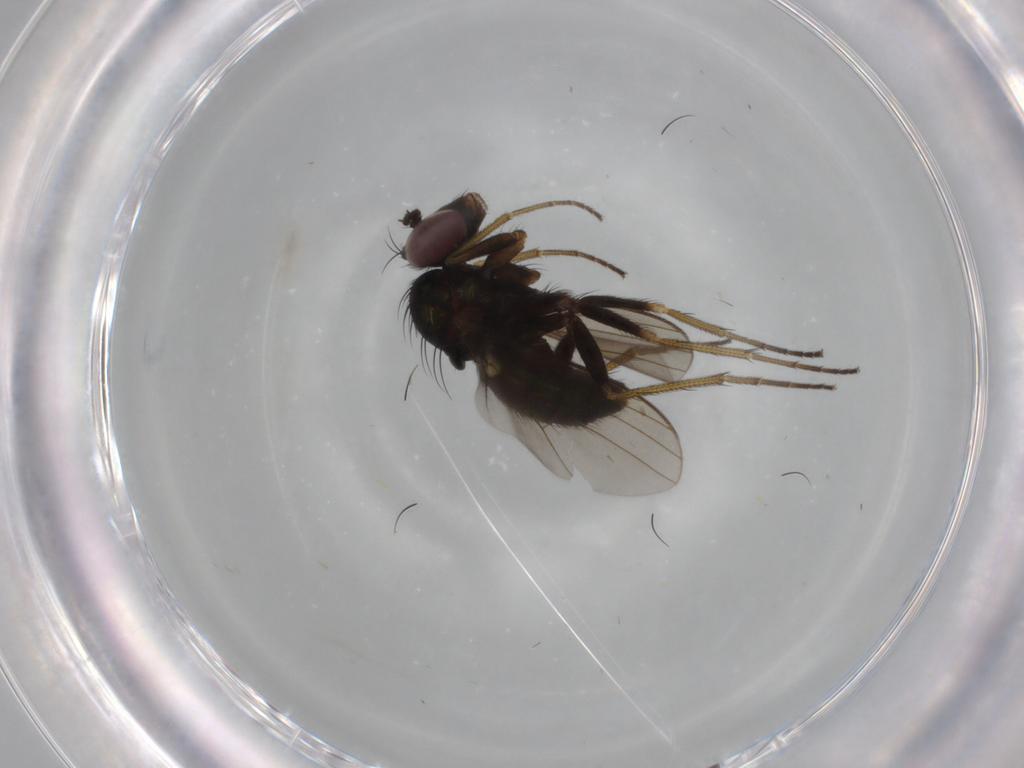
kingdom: Animalia
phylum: Arthropoda
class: Insecta
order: Diptera
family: Dolichopodidae
